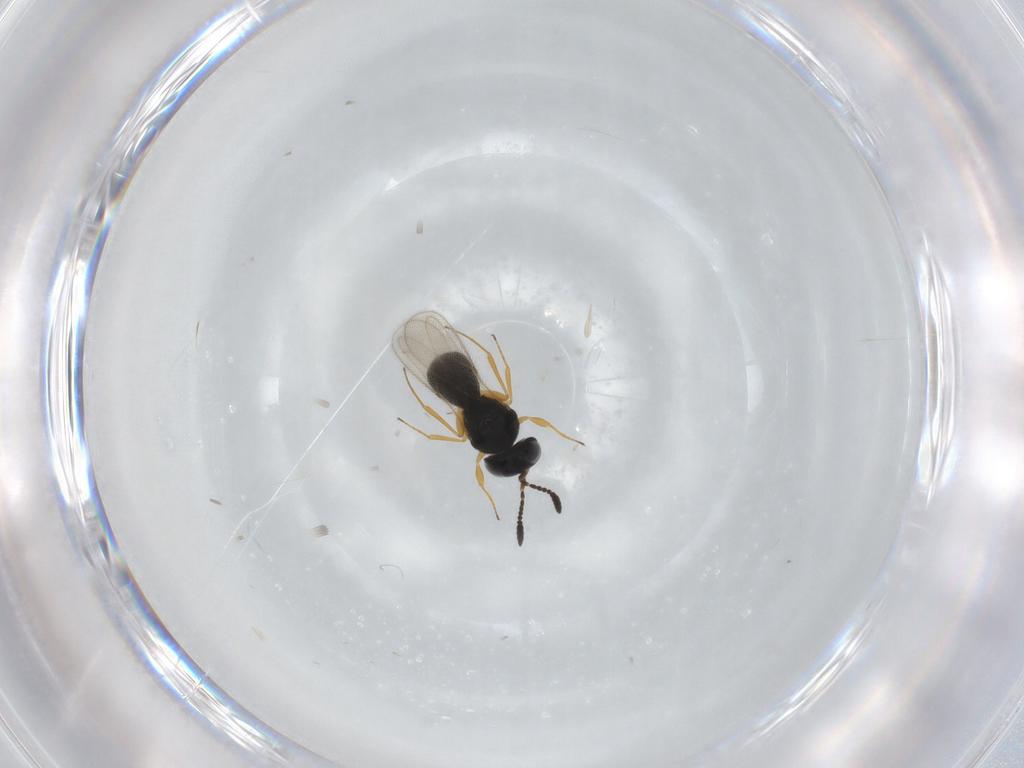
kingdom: Animalia
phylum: Arthropoda
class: Insecta
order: Hymenoptera
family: Scelionidae
